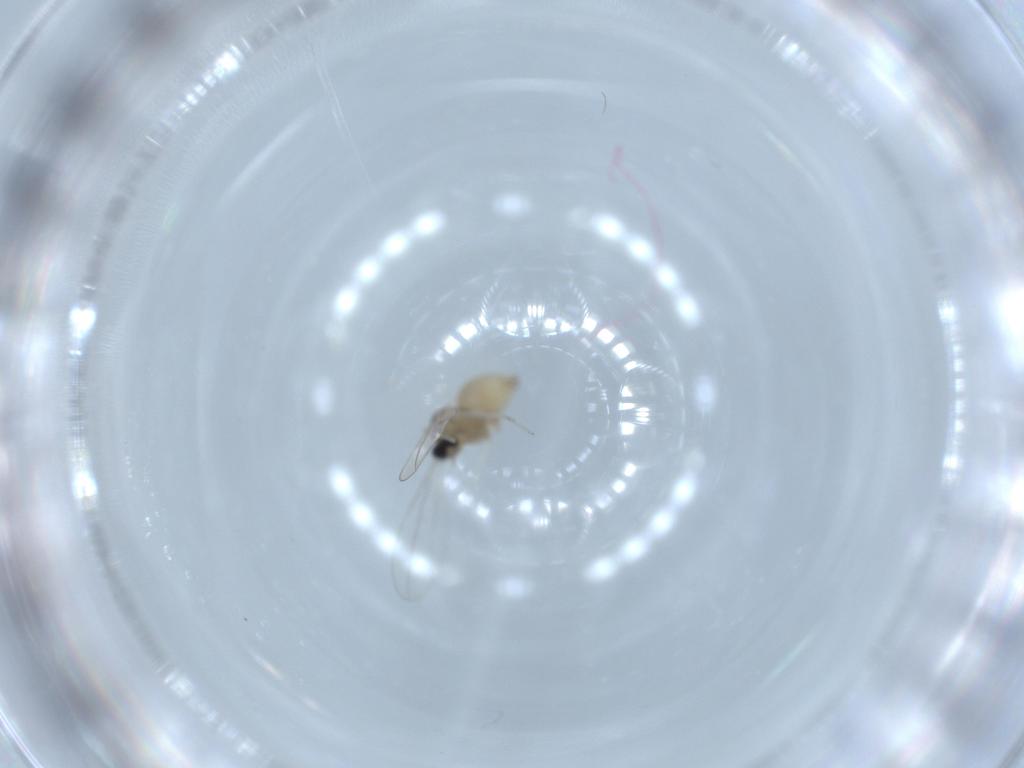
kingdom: Animalia
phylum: Arthropoda
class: Insecta
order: Diptera
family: Cecidomyiidae
